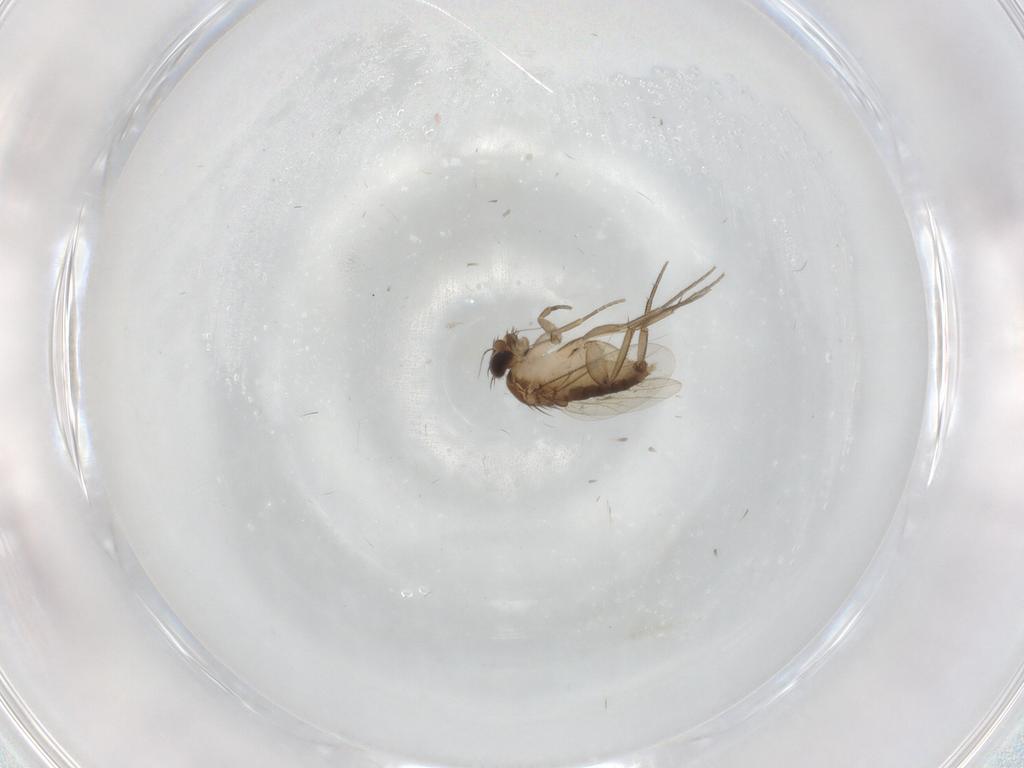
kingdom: Animalia
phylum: Arthropoda
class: Insecta
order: Diptera
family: Phoridae
